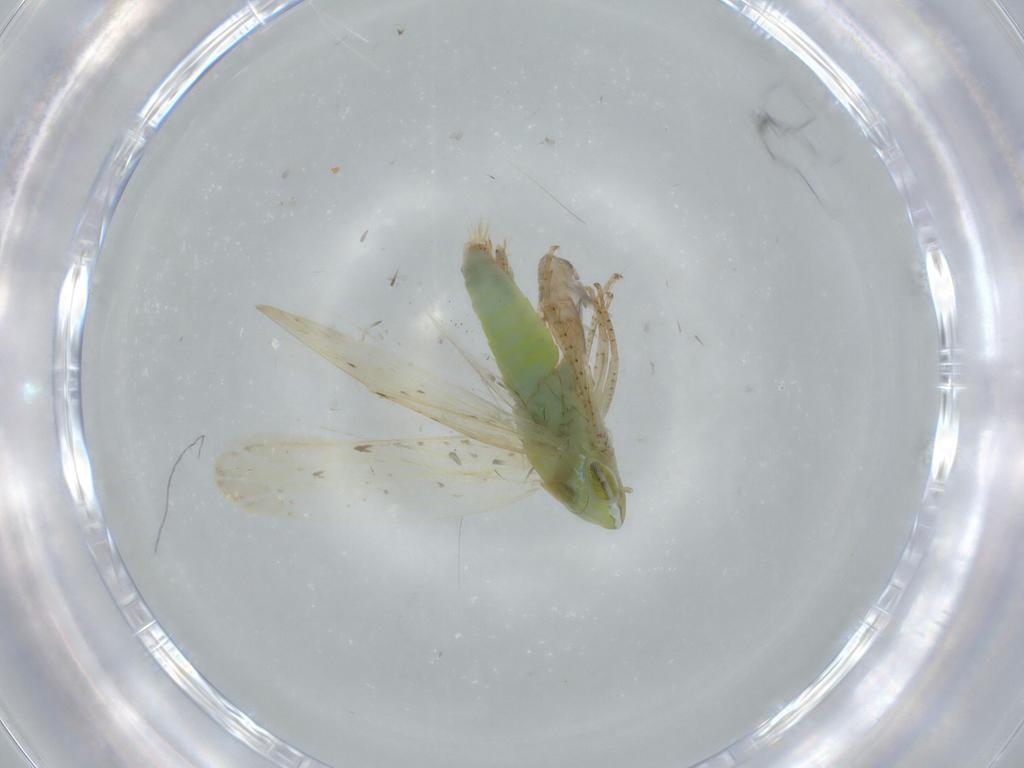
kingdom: Animalia
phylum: Arthropoda
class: Insecta
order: Hemiptera
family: Cicadellidae
